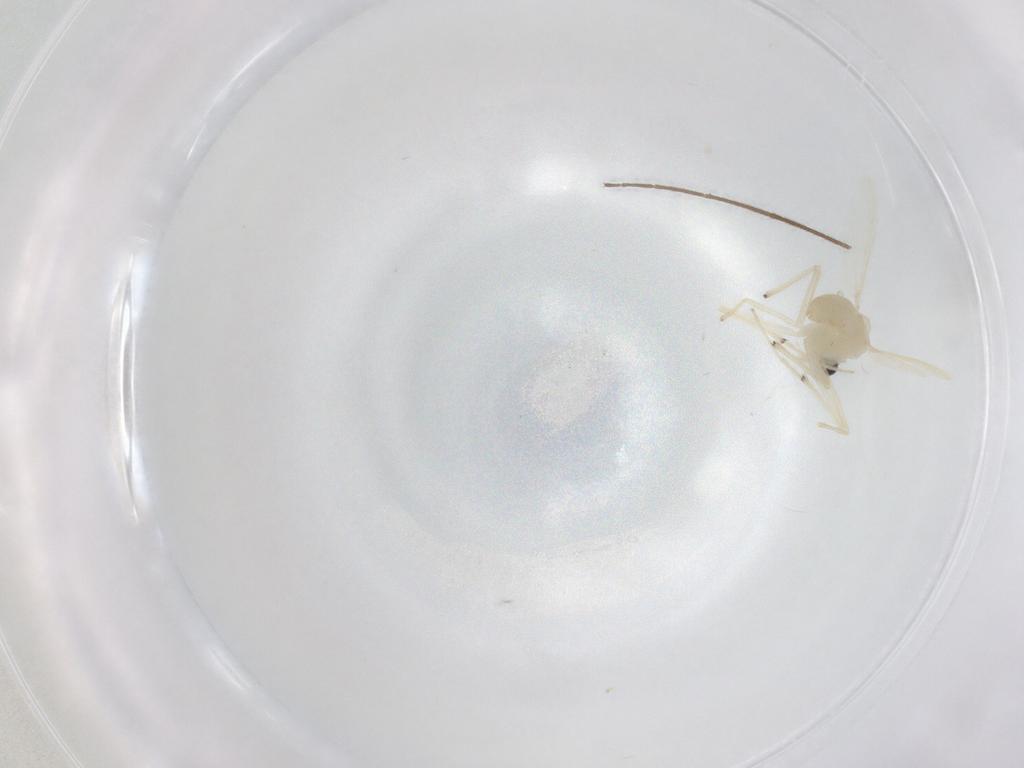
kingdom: Animalia
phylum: Arthropoda
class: Insecta
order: Diptera
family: Chironomidae
